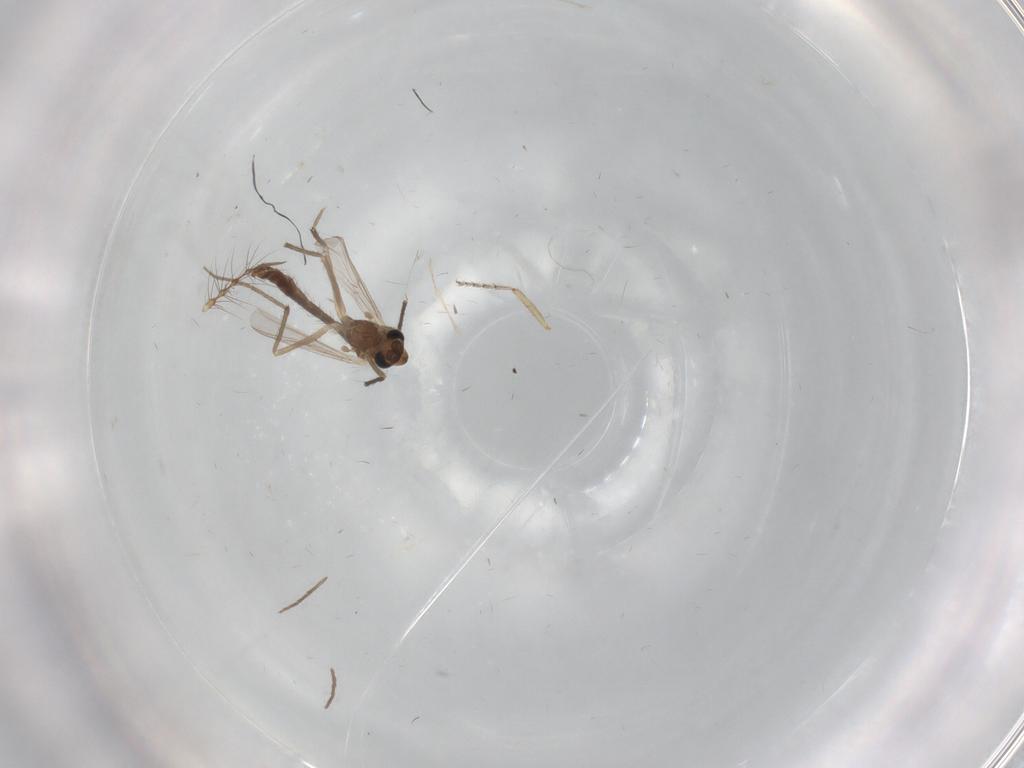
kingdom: Animalia
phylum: Arthropoda
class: Insecta
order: Diptera
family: Chironomidae
